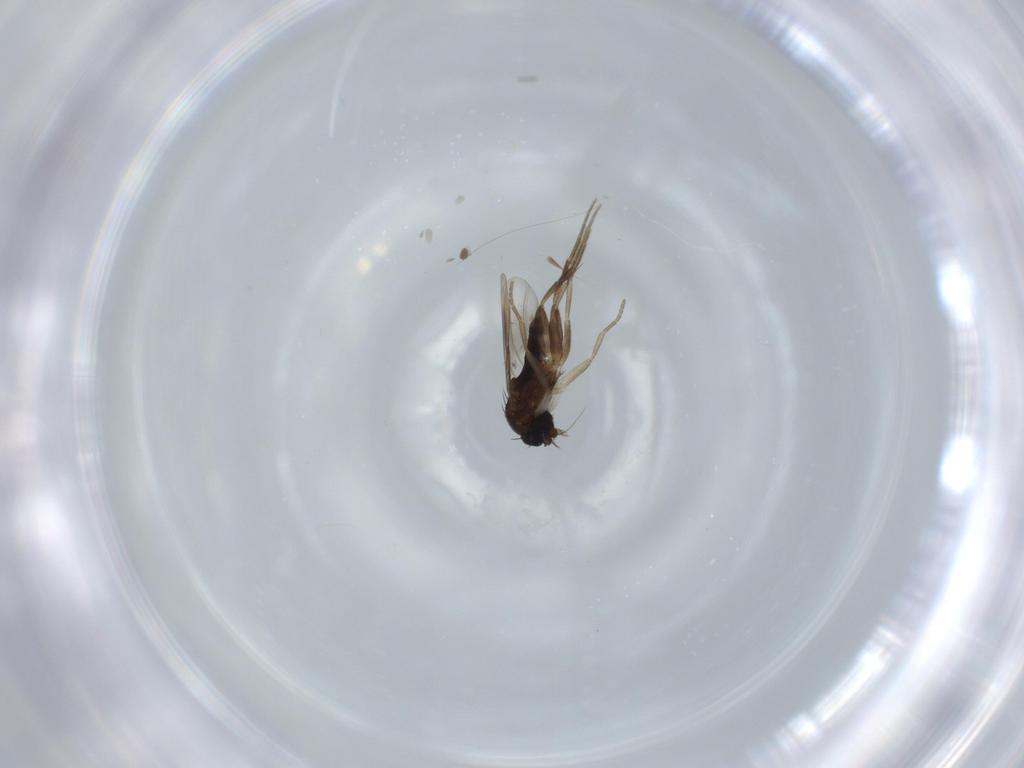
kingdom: Animalia
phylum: Arthropoda
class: Insecta
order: Diptera
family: Phoridae
